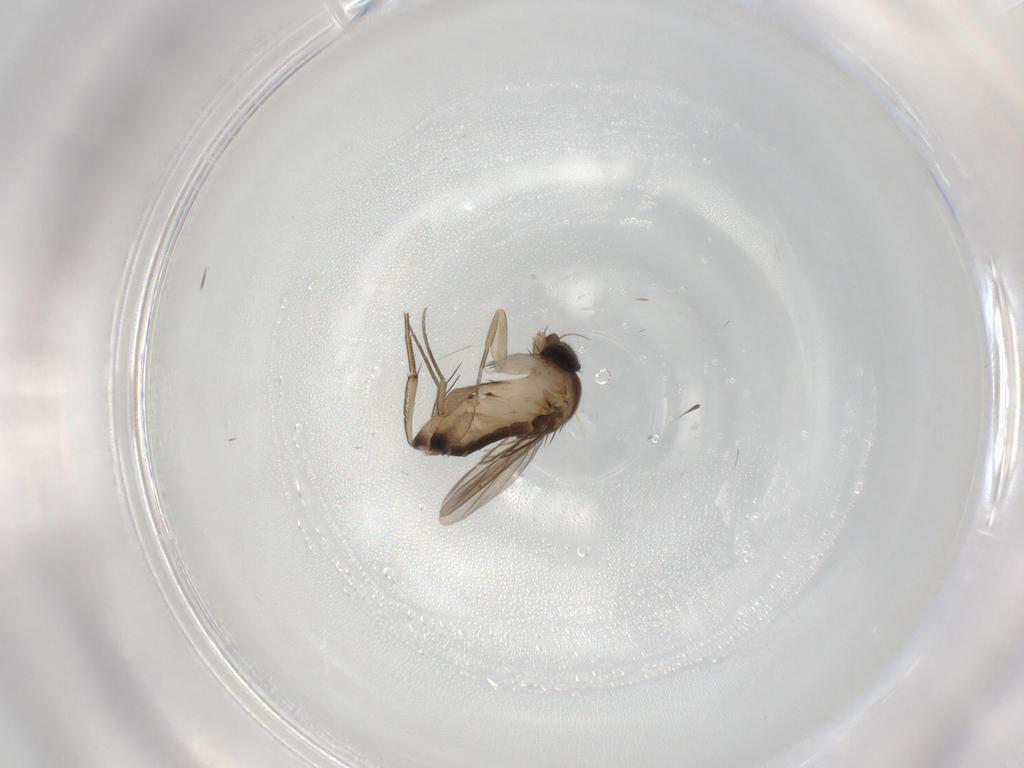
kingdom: Animalia
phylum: Arthropoda
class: Insecta
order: Diptera
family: Phoridae
